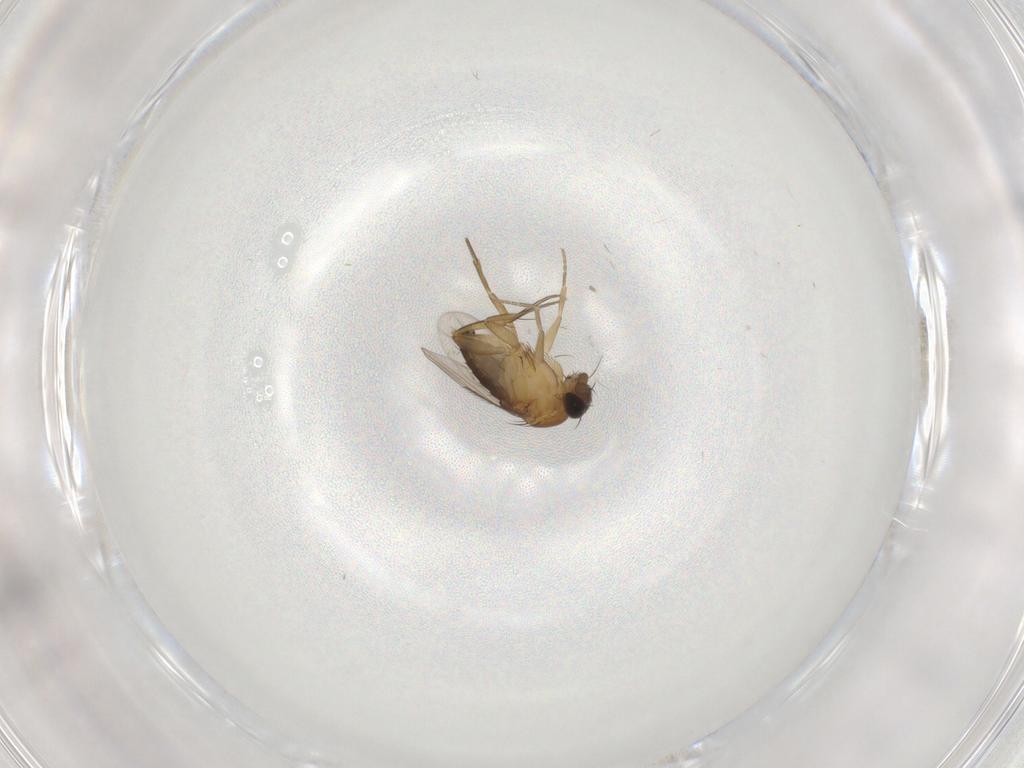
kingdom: Animalia
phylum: Arthropoda
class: Insecta
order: Diptera
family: Phoridae
